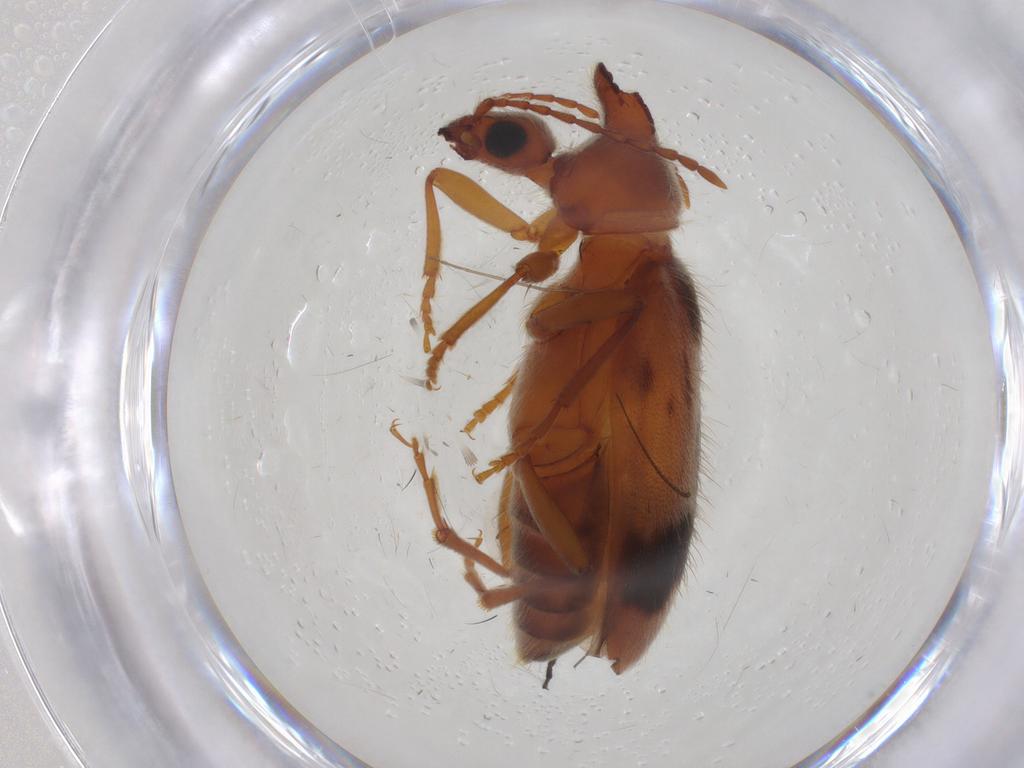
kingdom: Animalia
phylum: Arthropoda
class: Insecta
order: Coleoptera
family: Anthicidae
